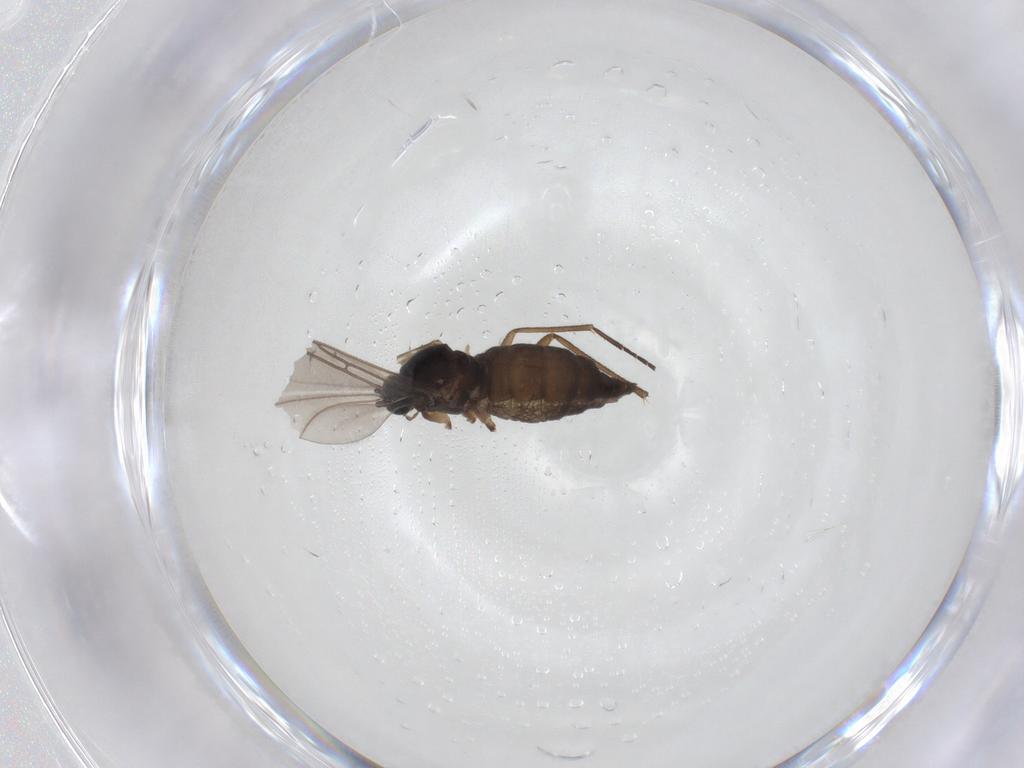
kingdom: Animalia
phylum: Arthropoda
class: Insecta
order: Diptera
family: Sciaridae
